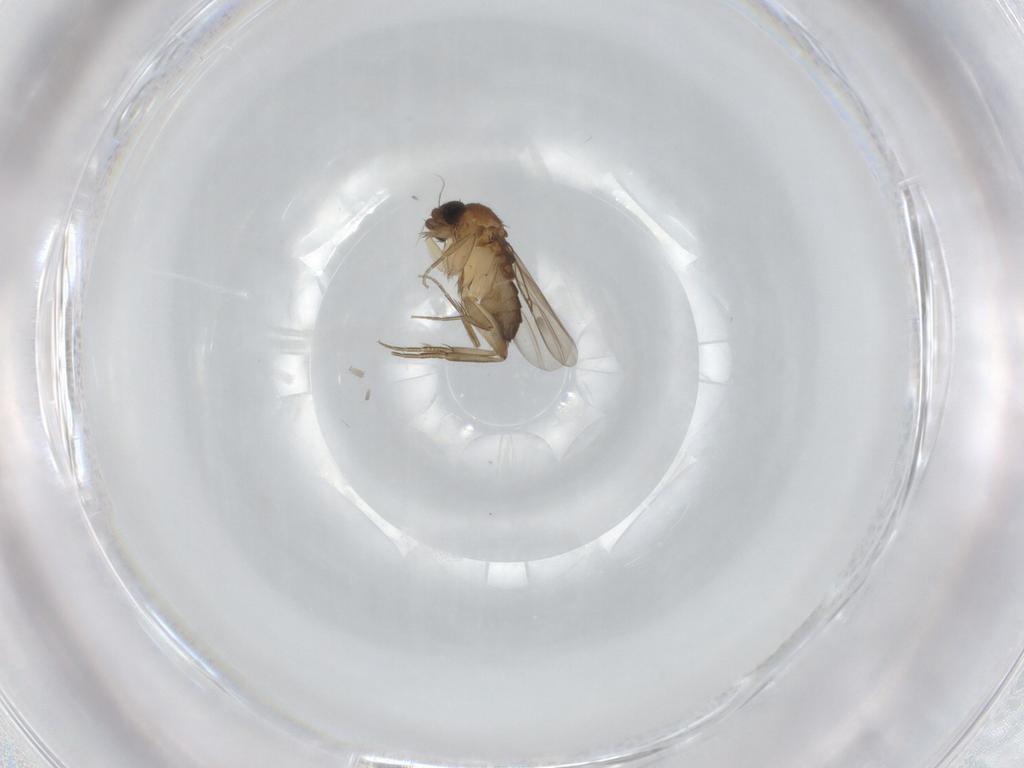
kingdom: Animalia
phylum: Arthropoda
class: Insecta
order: Diptera
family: Phoridae
